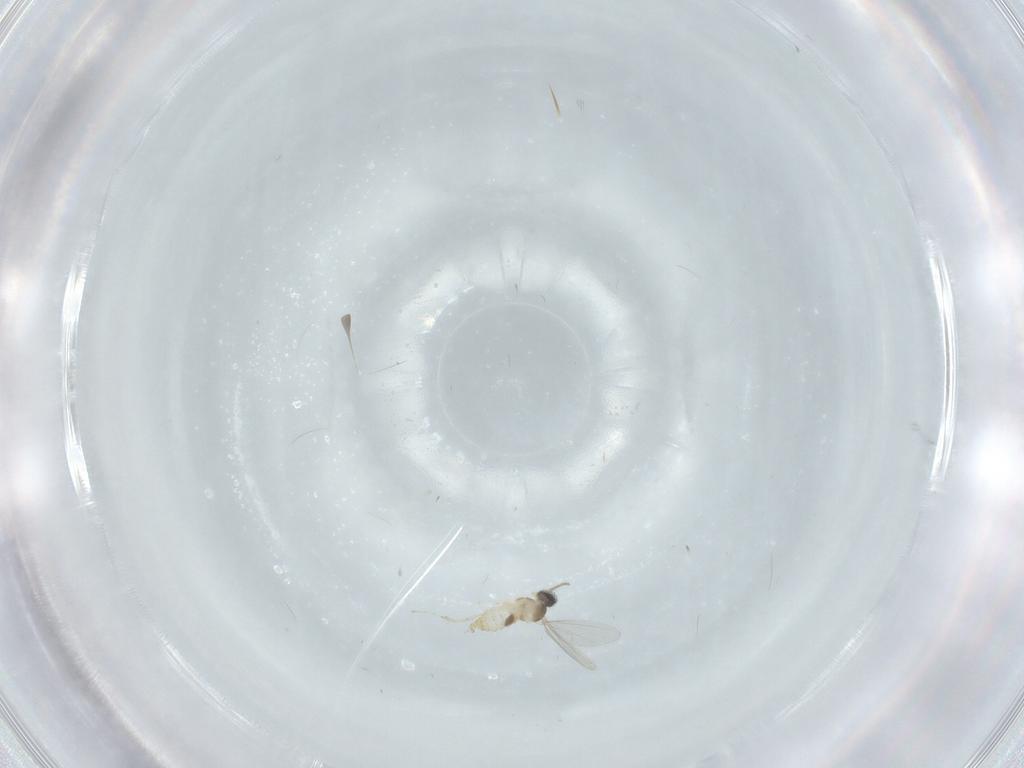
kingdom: Animalia
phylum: Arthropoda
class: Insecta
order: Diptera
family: Cecidomyiidae
